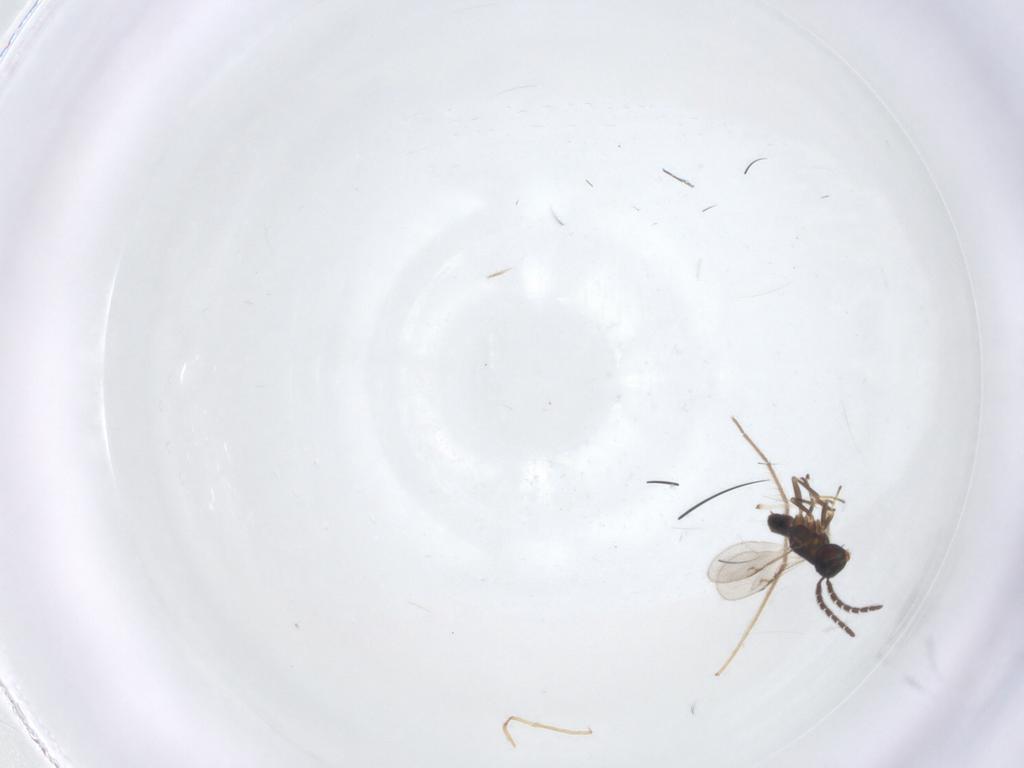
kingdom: Animalia
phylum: Arthropoda
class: Insecta
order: Hymenoptera
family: Encyrtidae
